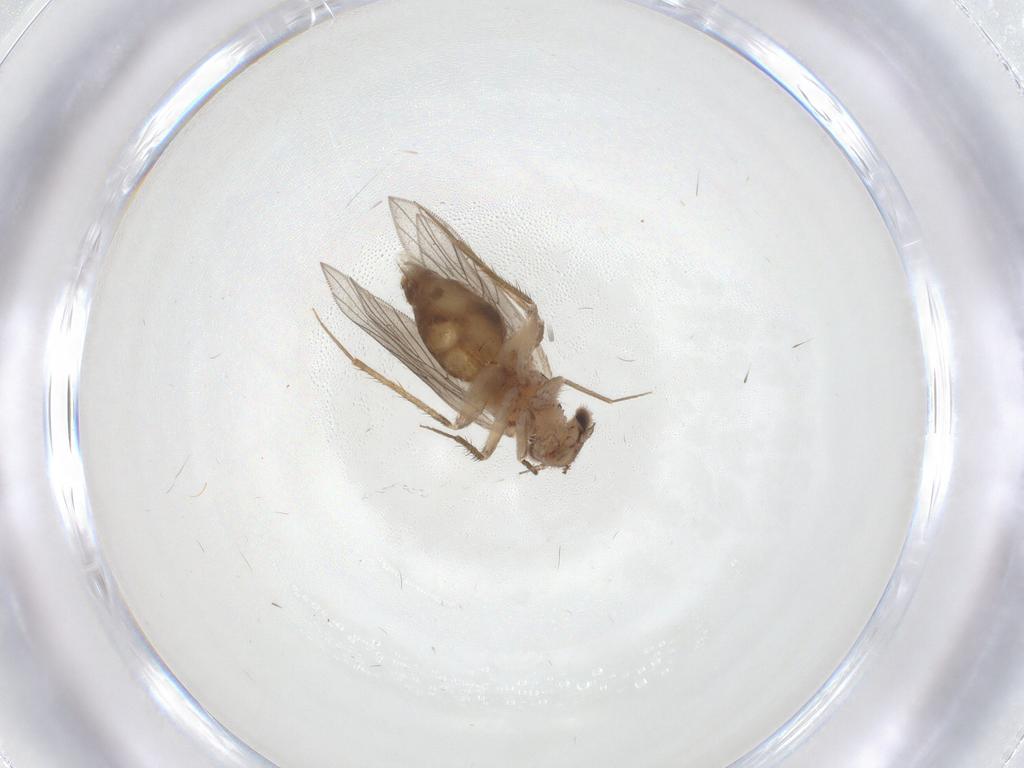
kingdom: Animalia
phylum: Arthropoda
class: Insecta
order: Psocodea
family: Lepidopsocidae
